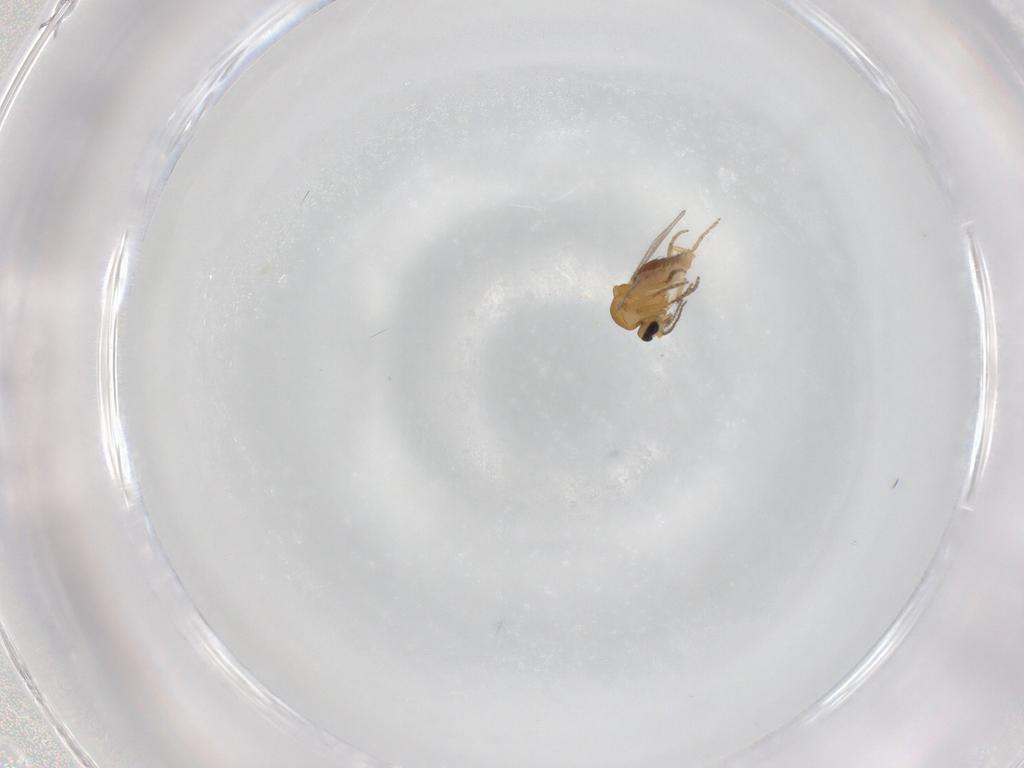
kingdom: Animalia
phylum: Arthropoda
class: Insecta
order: Diptera
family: Ceratopogonidae
